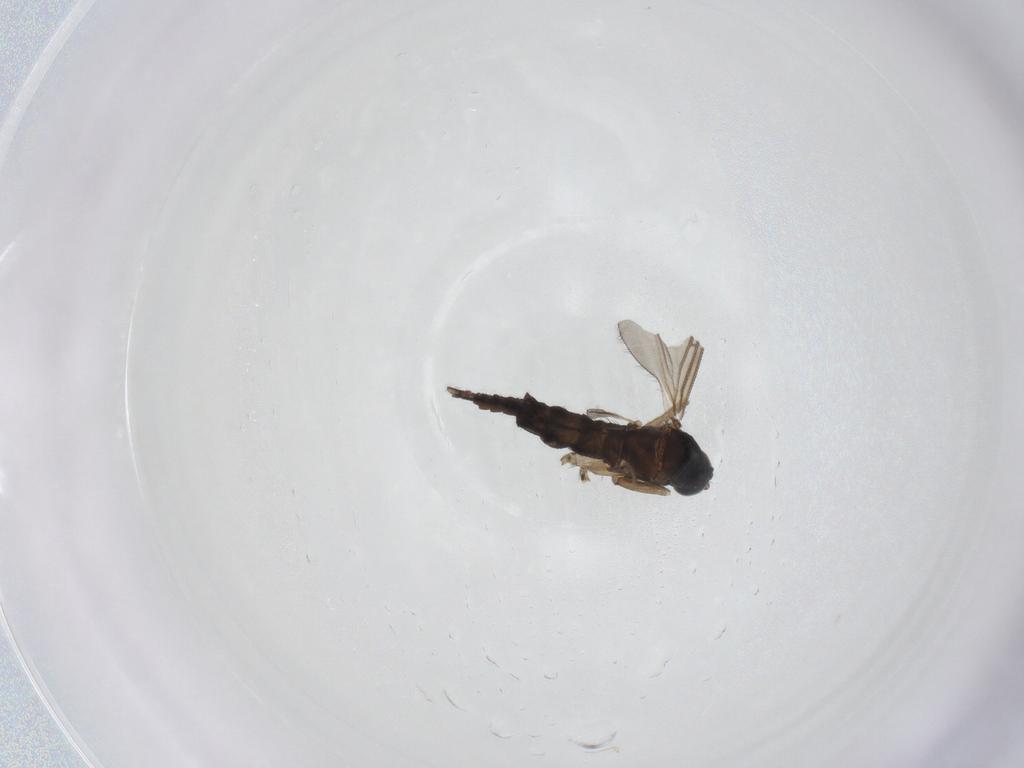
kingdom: Animalia
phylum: Arthropoda
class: Insecta
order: Diptera
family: Sciaridae
